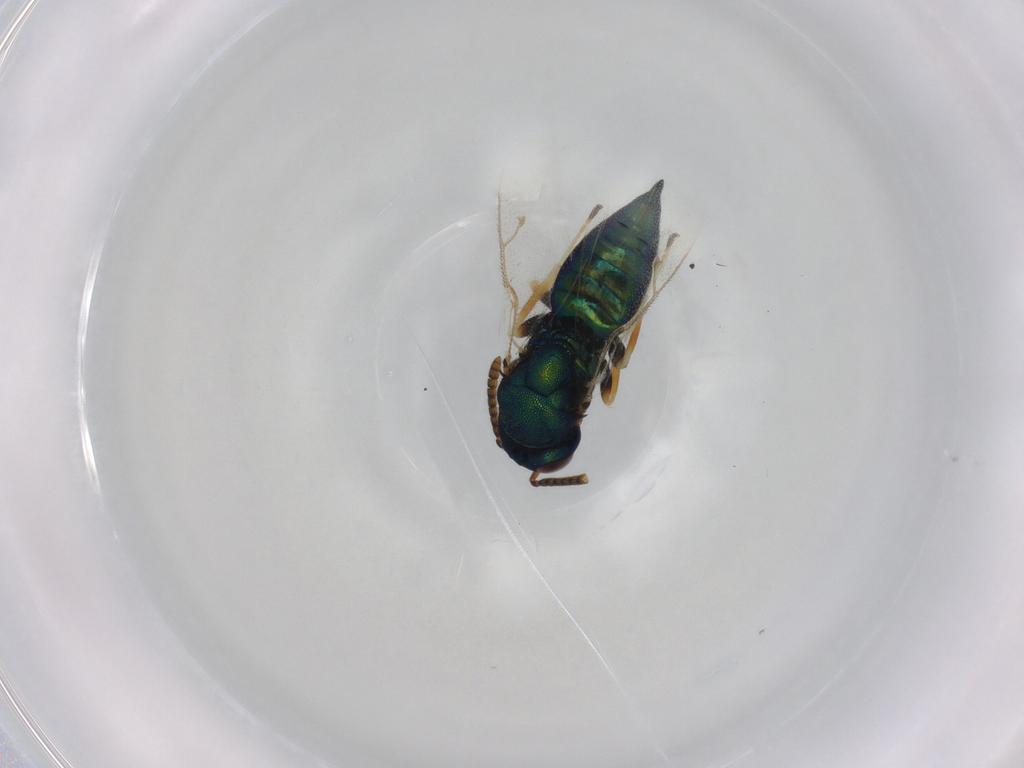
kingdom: Animalia
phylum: Arthropoda
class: Insecta
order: Hymenoptera
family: Pteromalidae
